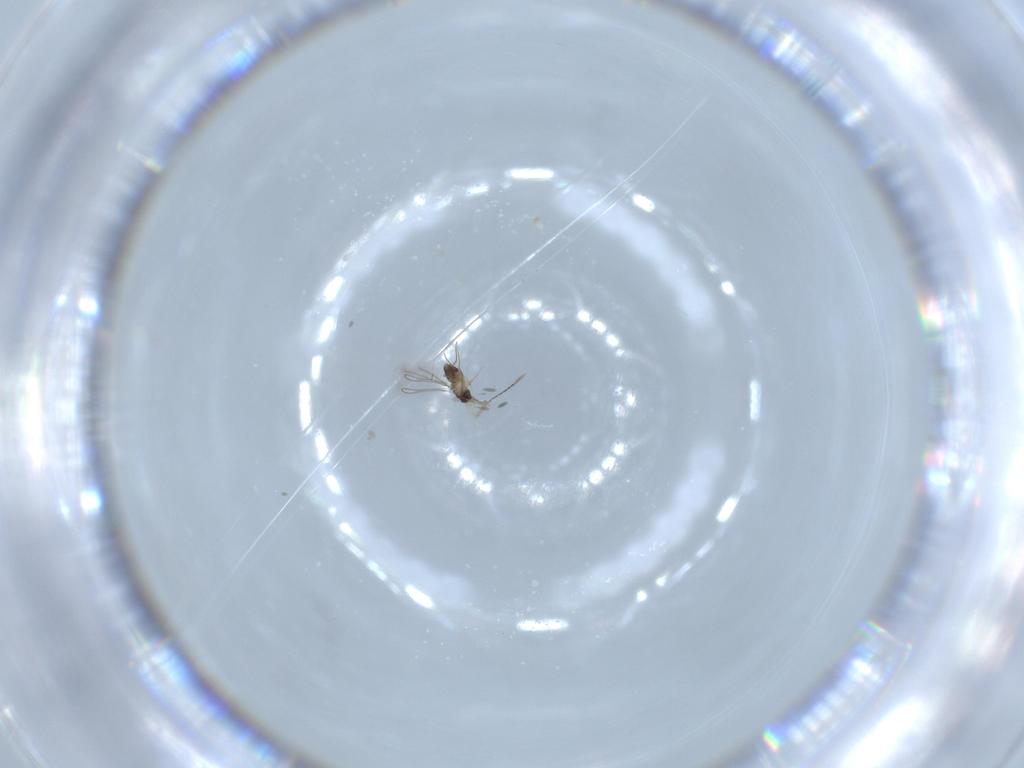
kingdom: Animalia
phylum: Arthropoda
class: Insecta
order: Hymenoptera
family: Mymaridae
